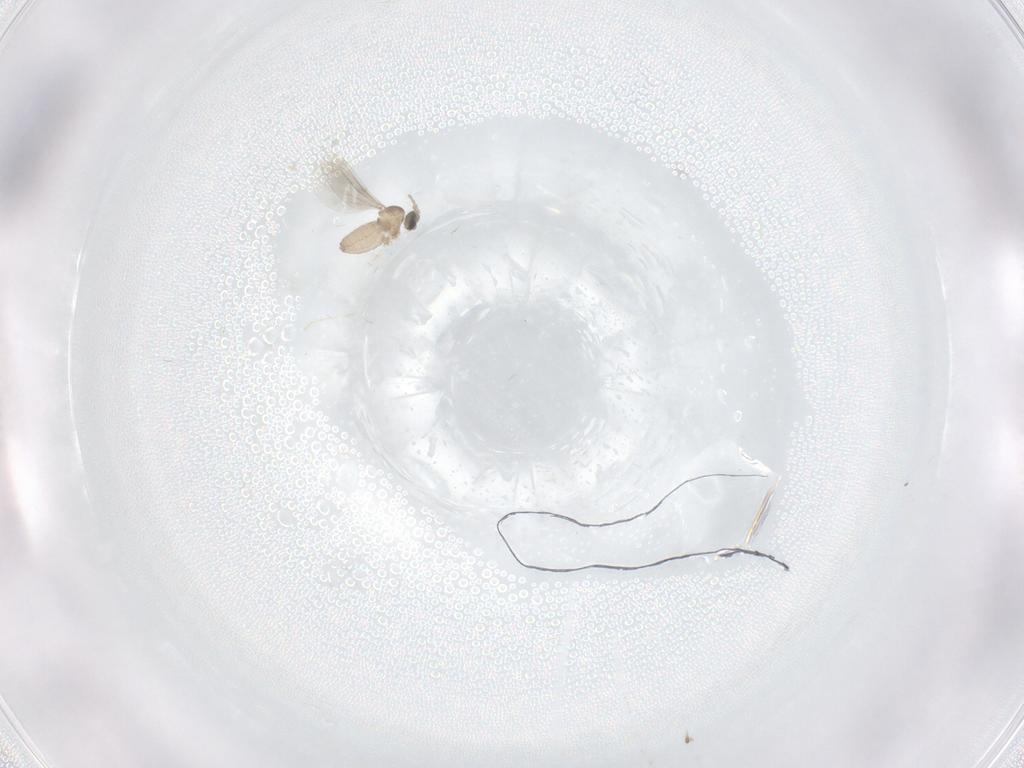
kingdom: Animalia
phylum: Arthropoda
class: Insecta
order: Diptera
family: Cecidomyiidae
